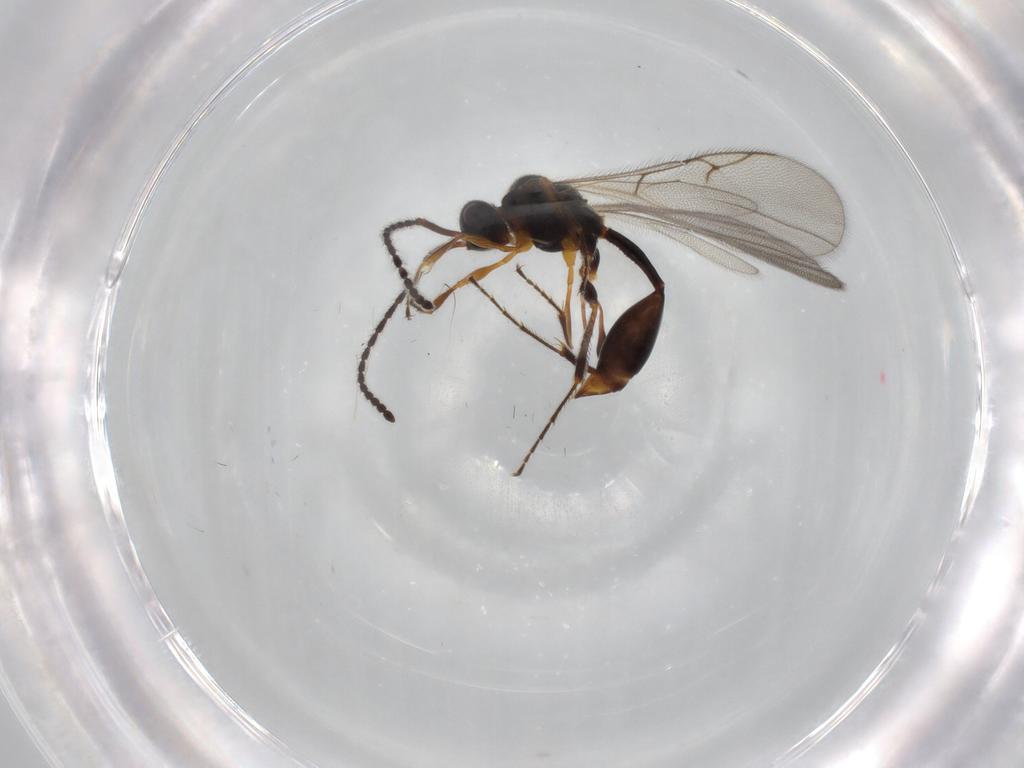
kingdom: Animalia
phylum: Arthropoda
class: Insecta
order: Hymenoptera
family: Diapriidae
